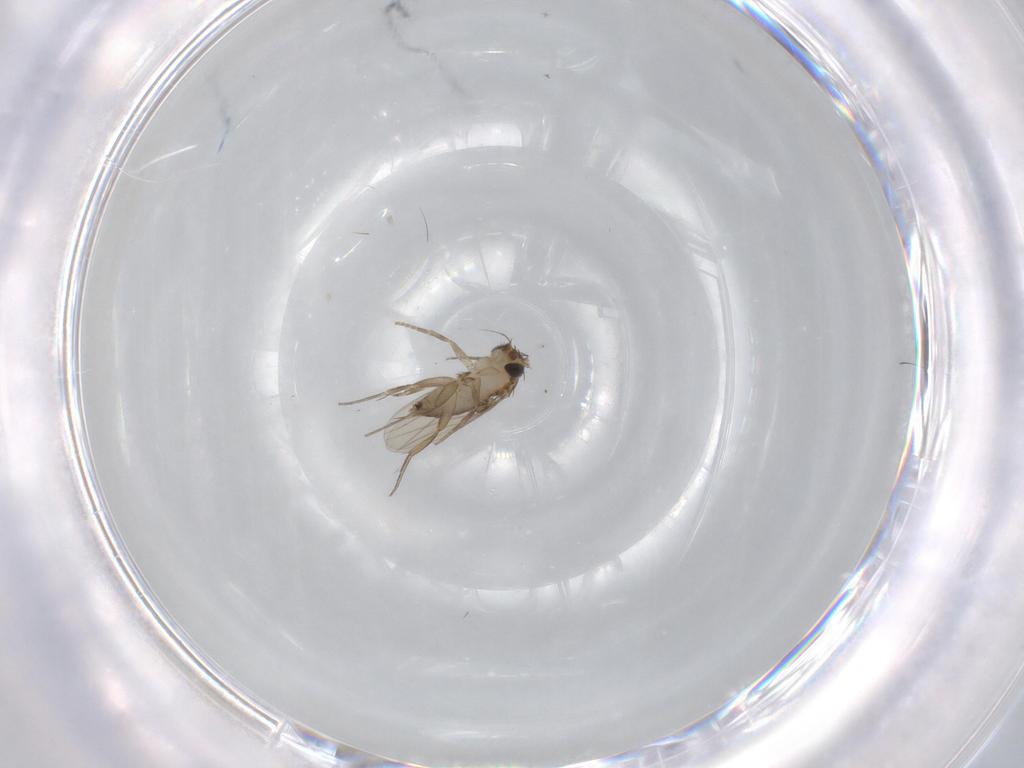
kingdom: Animalia
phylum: Arthropoda
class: Insecta
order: Diptera
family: Phoridae
